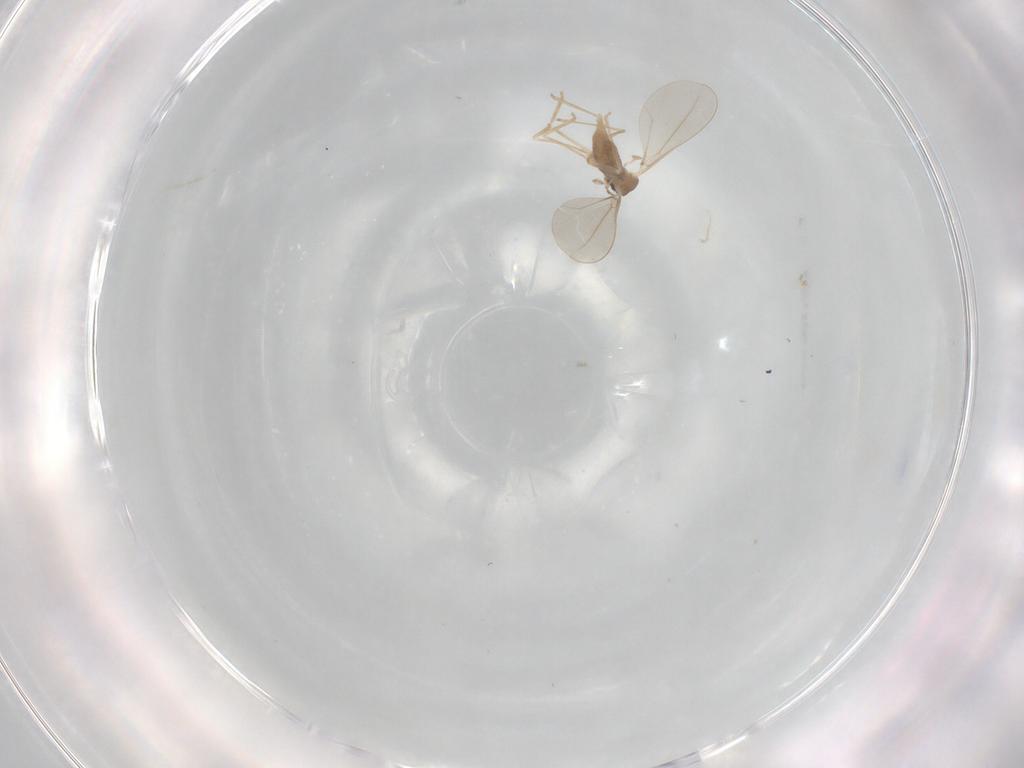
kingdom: Animalia
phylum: Arthropoda
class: Insecta
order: Diptera
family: Cecidomyiidae
